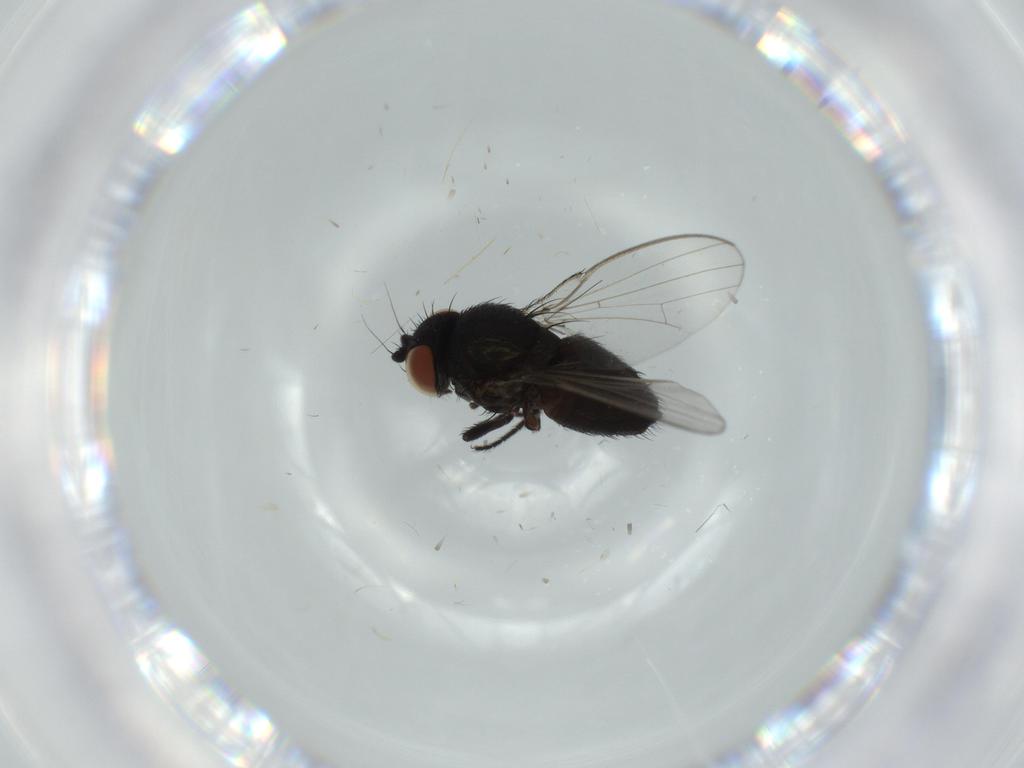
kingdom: Animalia
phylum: Arthropoda
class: Insecta
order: Diptera
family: Milichiidae
